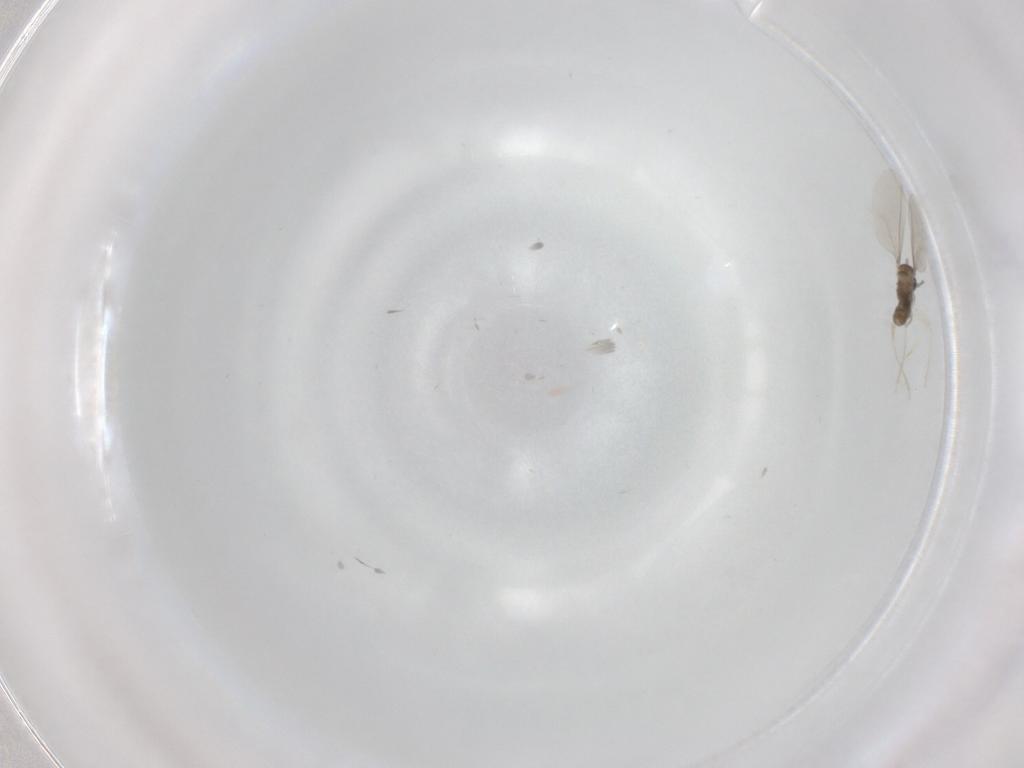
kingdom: Animalia
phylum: Arthropoda
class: Insecta
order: Diptera
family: Cecidomyiidae
